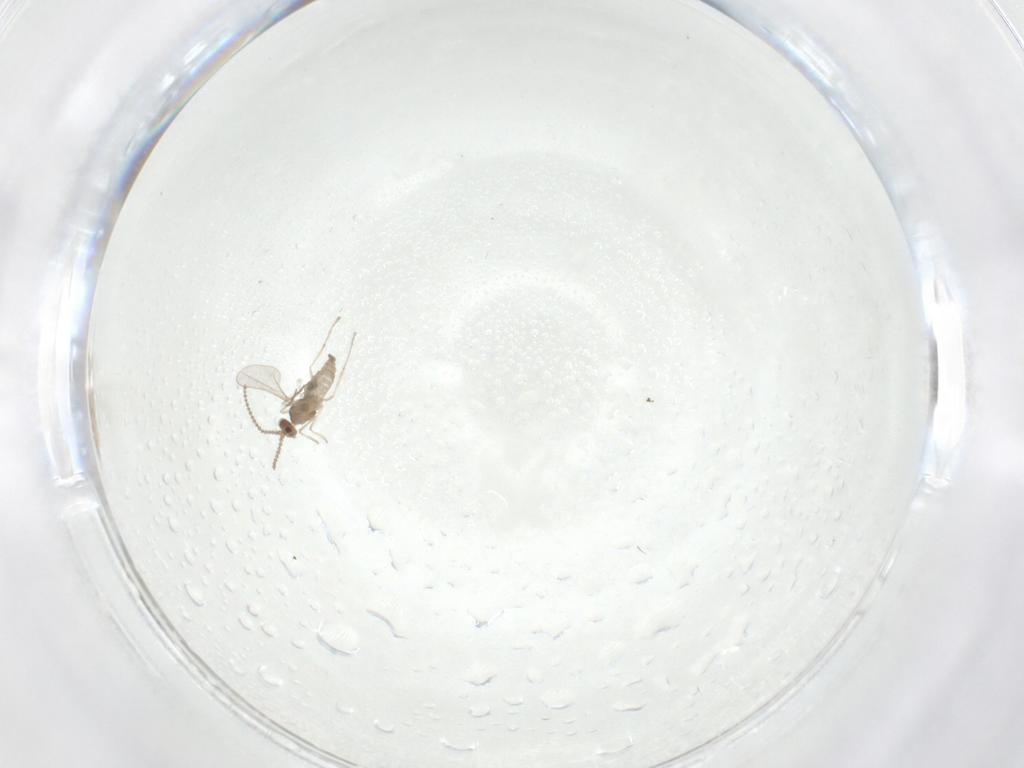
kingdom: Animalia
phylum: Arthropoda
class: Insecta
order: Diptera
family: Cecidomyiidae
